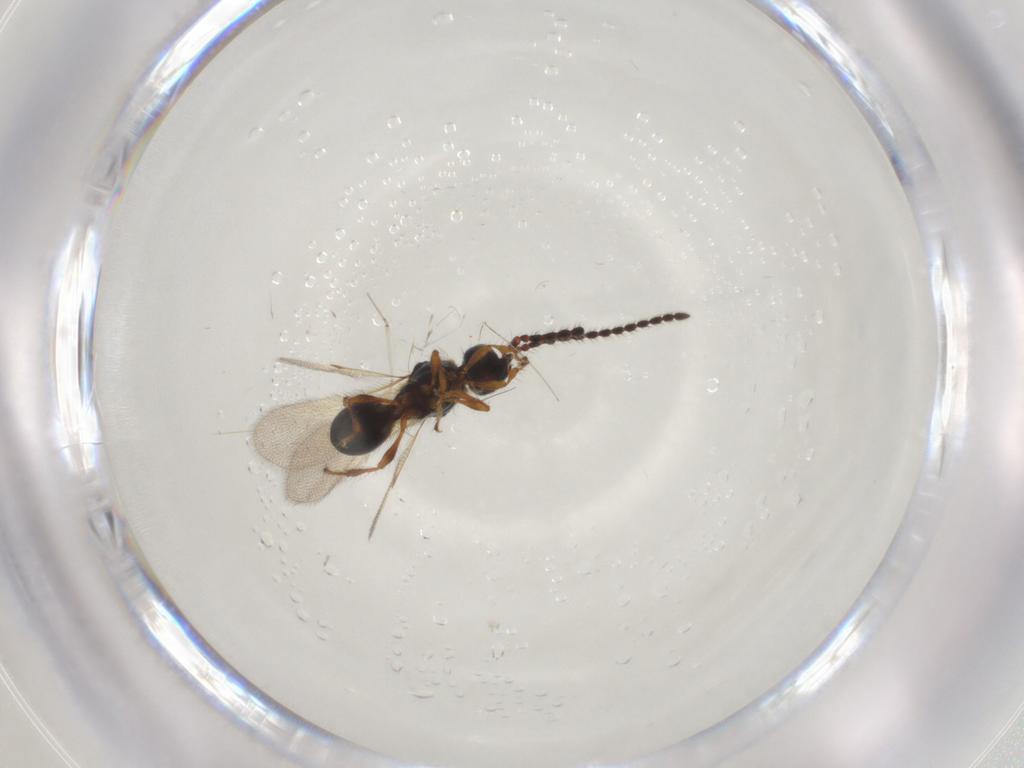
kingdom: Animalia
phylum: Arthropoda
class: Insecta
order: Hymenoptera
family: Diapriidae
